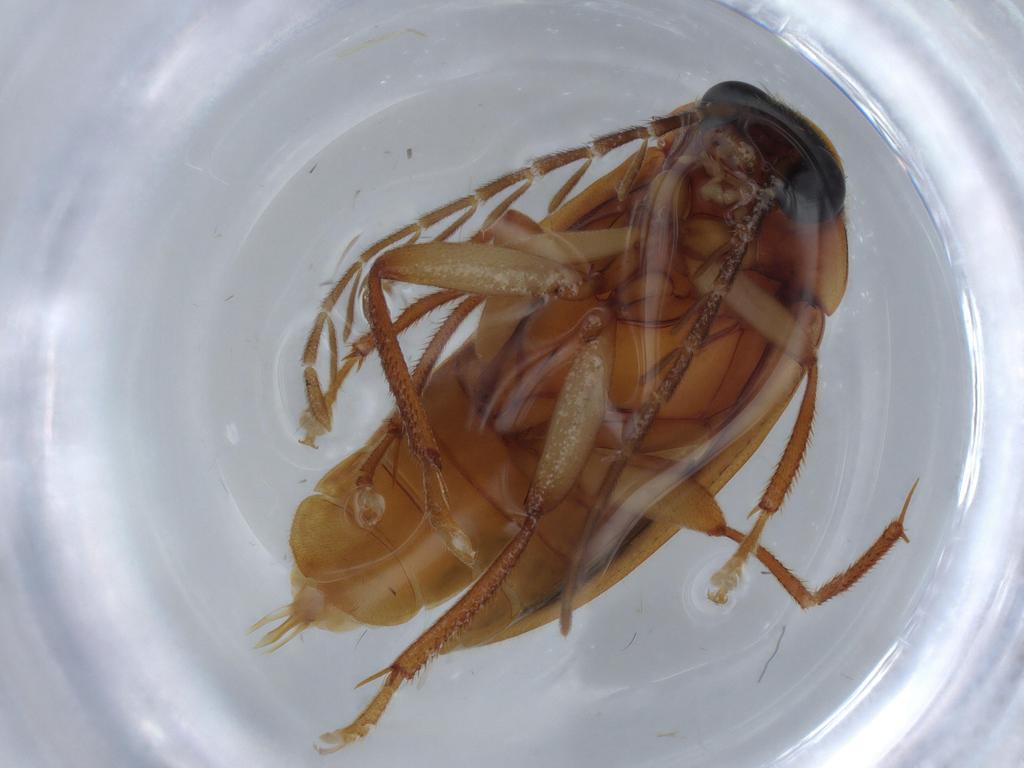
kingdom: Animalia
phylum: Arthropoda
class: Insecta
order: Coleoptera
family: Ptilodactylidae
